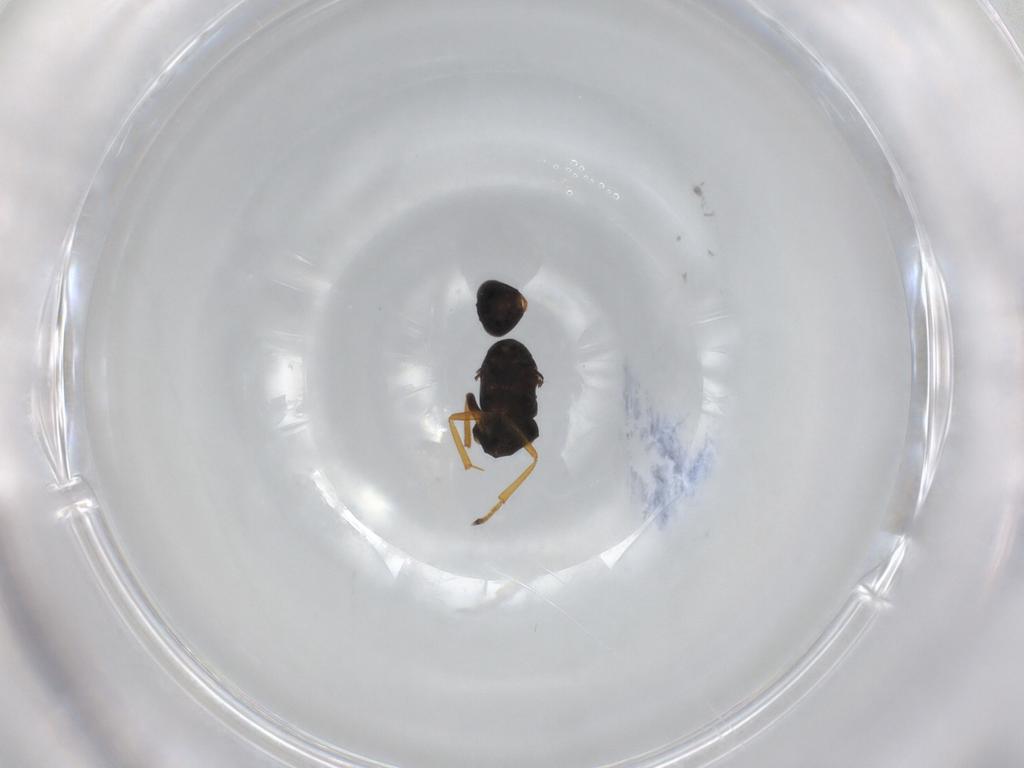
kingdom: Animalia
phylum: Arthropoda
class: Insecta
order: Hymenoptera
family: Encyrtidae
